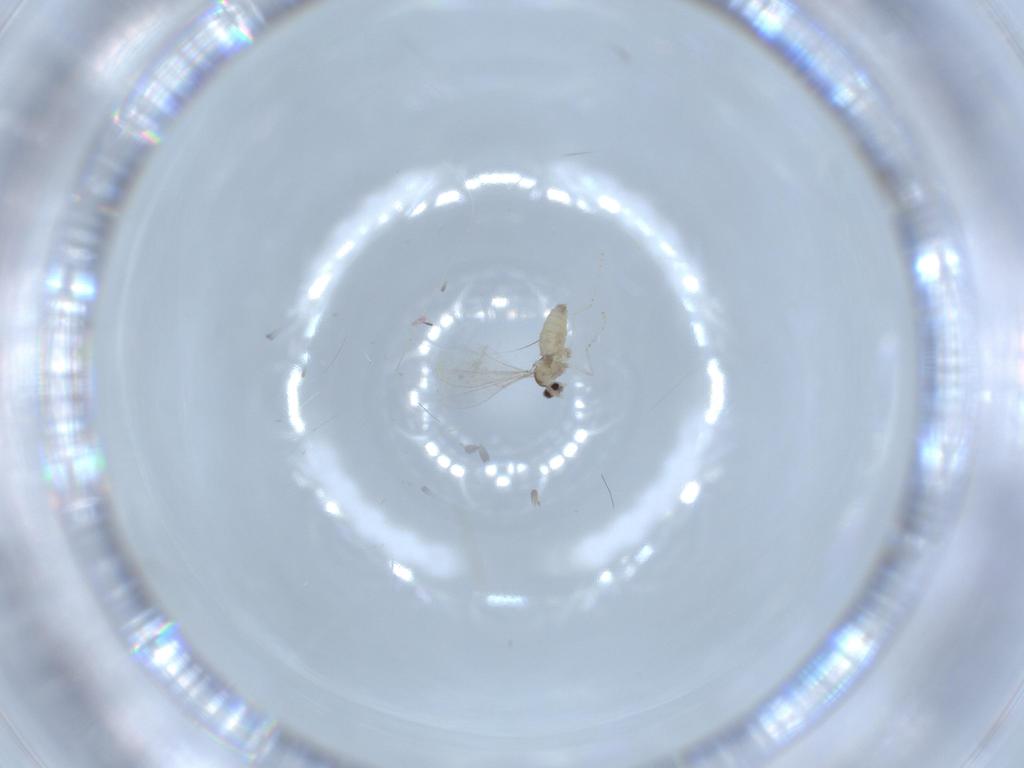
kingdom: Animalia
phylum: Arthropoda
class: Insecta
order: Diptera
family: Cecidomyiidae
